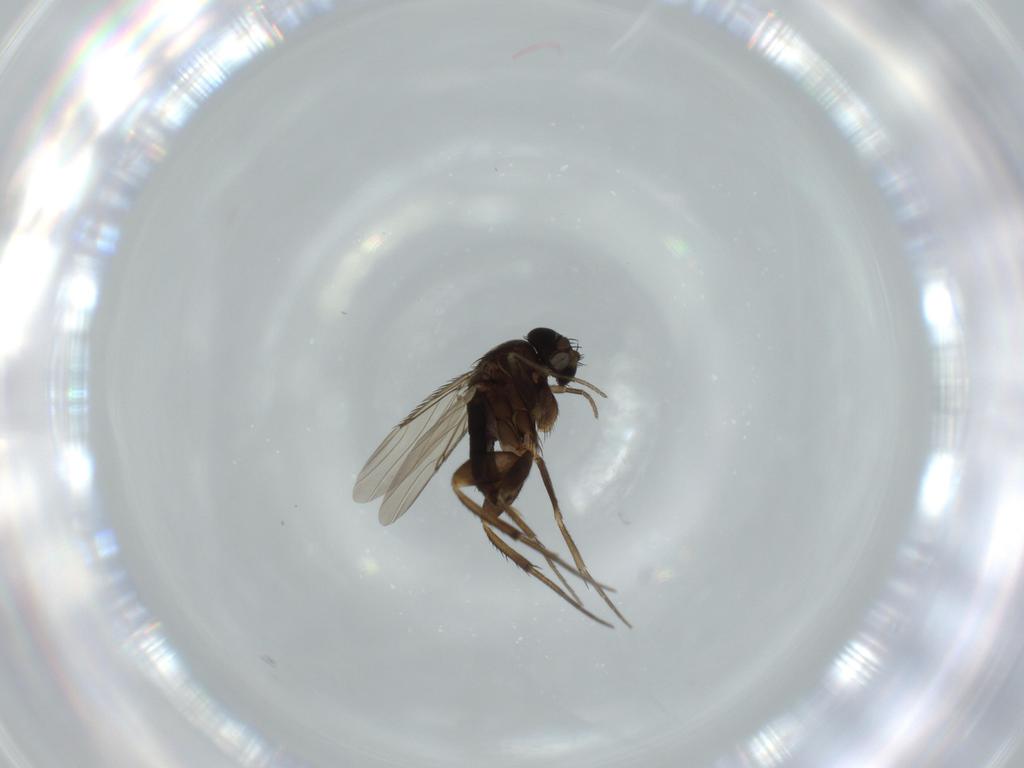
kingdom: Animalia
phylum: Arthropoda
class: Insecta
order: Diptera
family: Phoridae
